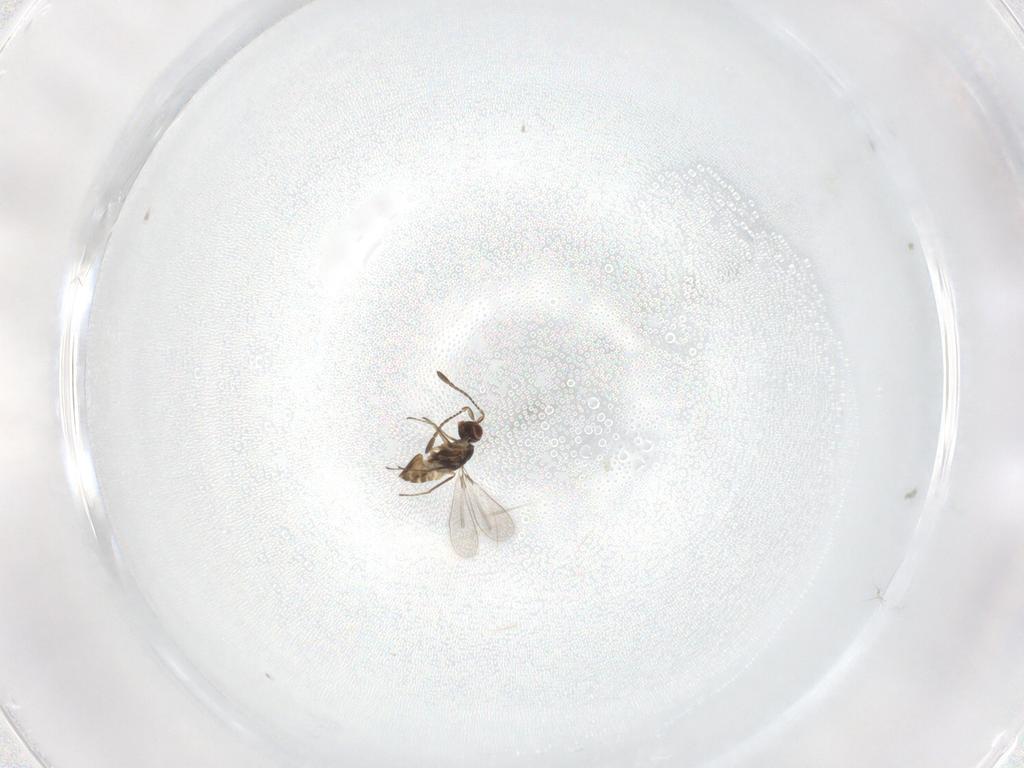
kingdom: Animalia
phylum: Arthropoda
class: Insecta
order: Hymenoptera
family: Mymaridae
